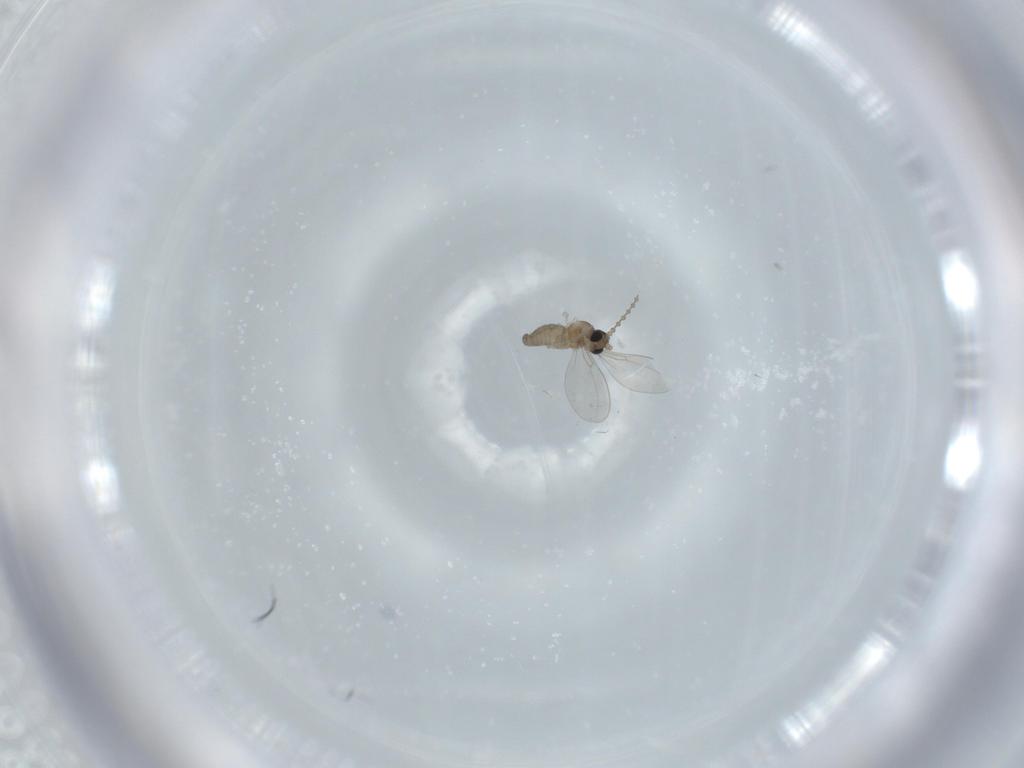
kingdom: Animalia
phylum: Arthropoda
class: Insecta
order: Diptera
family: Cecidomyiidae
